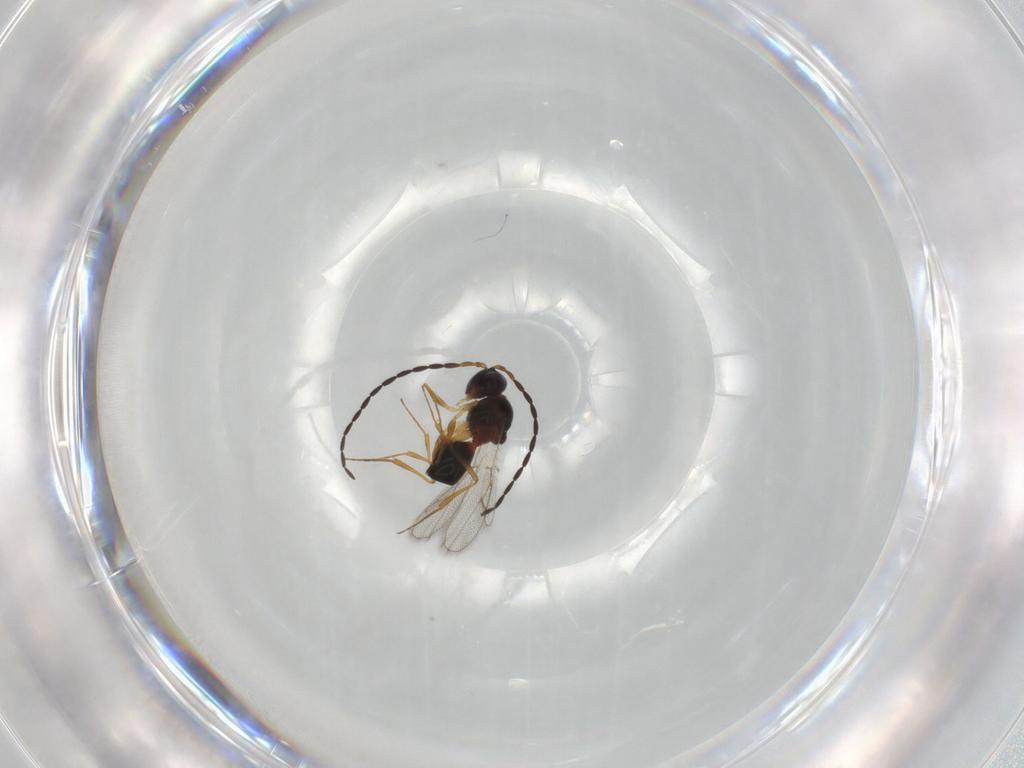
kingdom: Animalia
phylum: Arthropoda
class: Insecta
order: Hymenoptera
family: Figitidae
